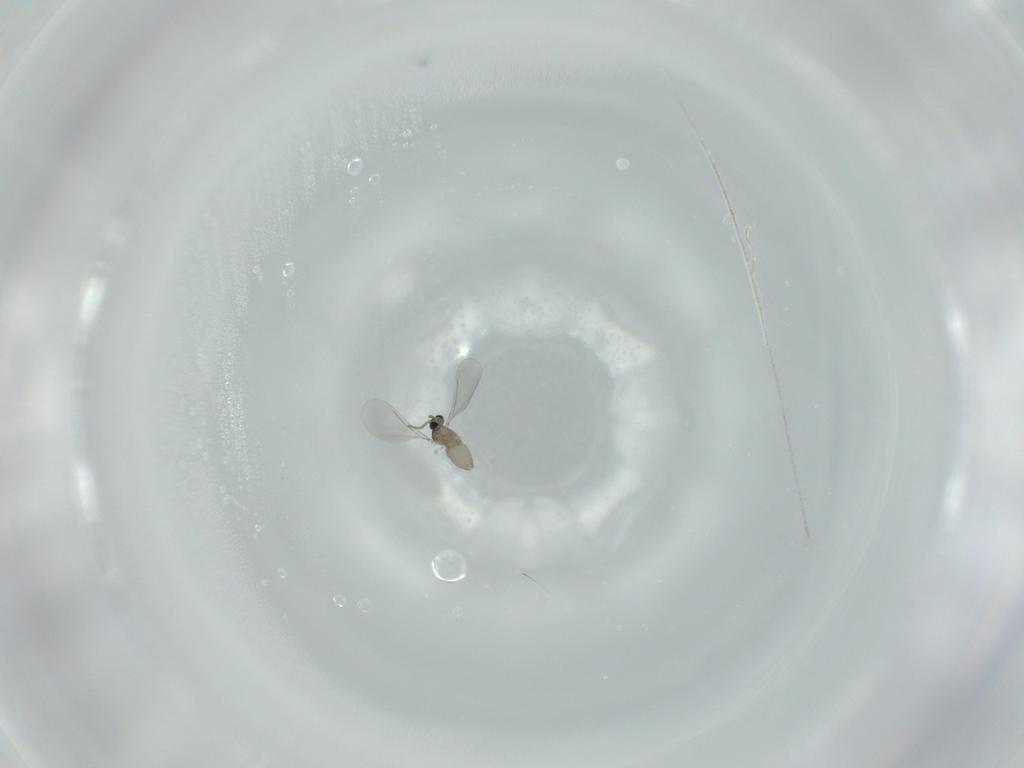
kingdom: Animalia
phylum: Arthropoda
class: Insecta
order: Diptera
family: Cecidomyiidae
